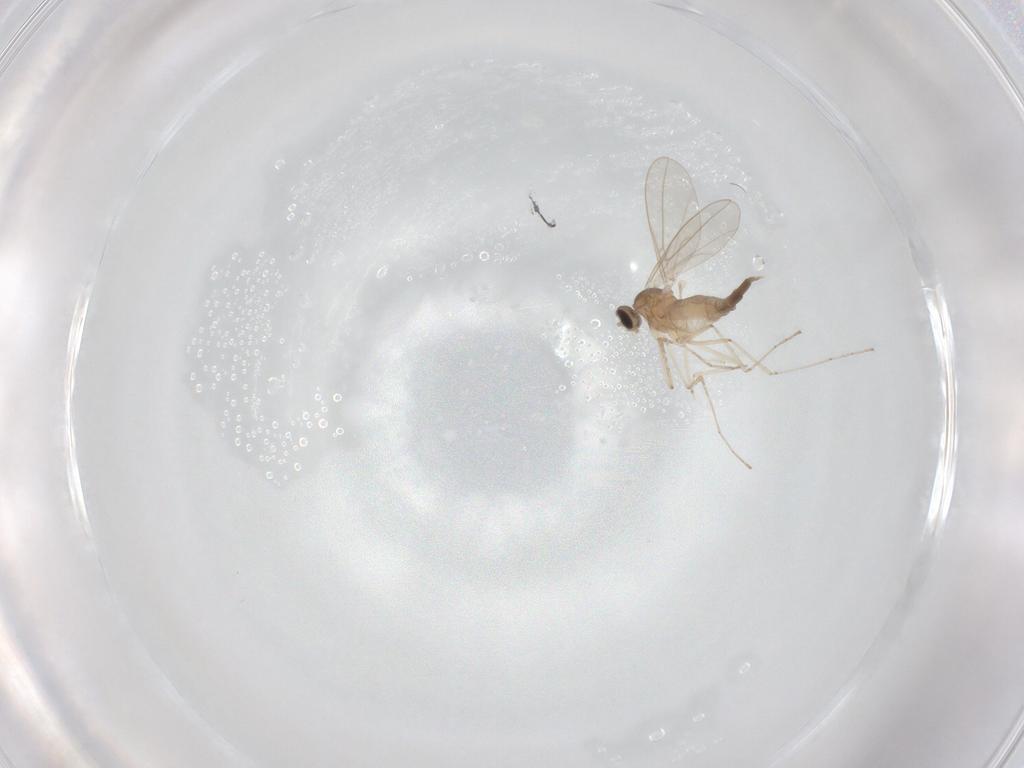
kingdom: Animalia
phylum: Arthropoda
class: Insecta
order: Diptera
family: Cecidomyiidae
